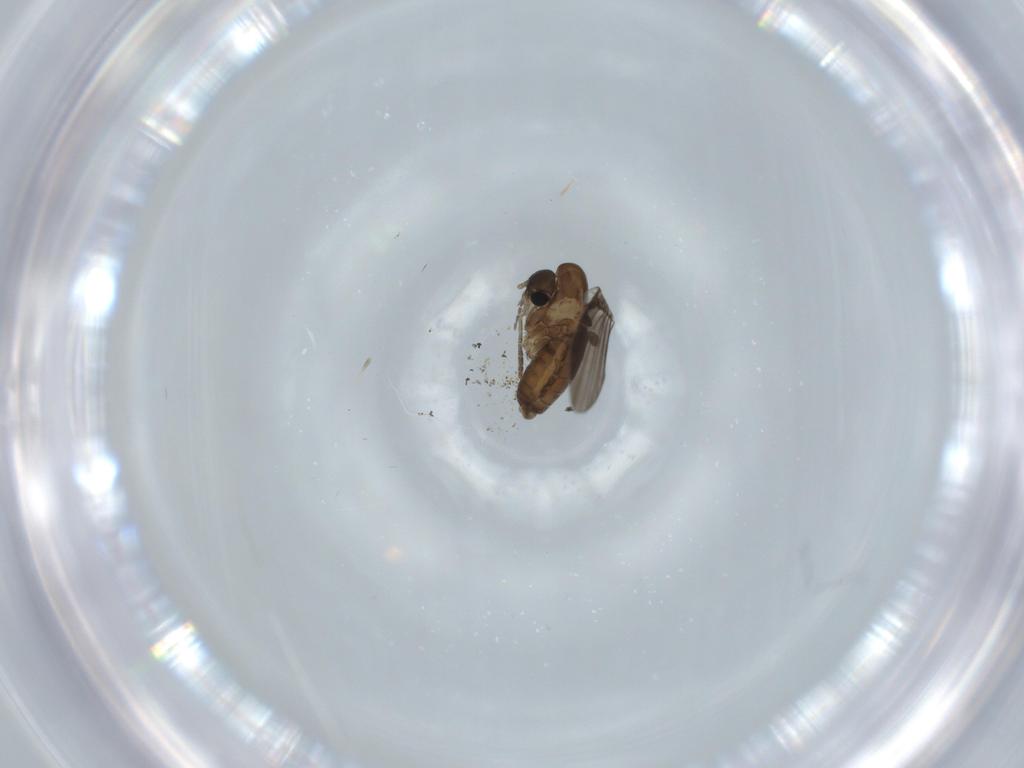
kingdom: Animalia
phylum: Arthropoda
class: Insecta
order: Diptera
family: Psychodidae
